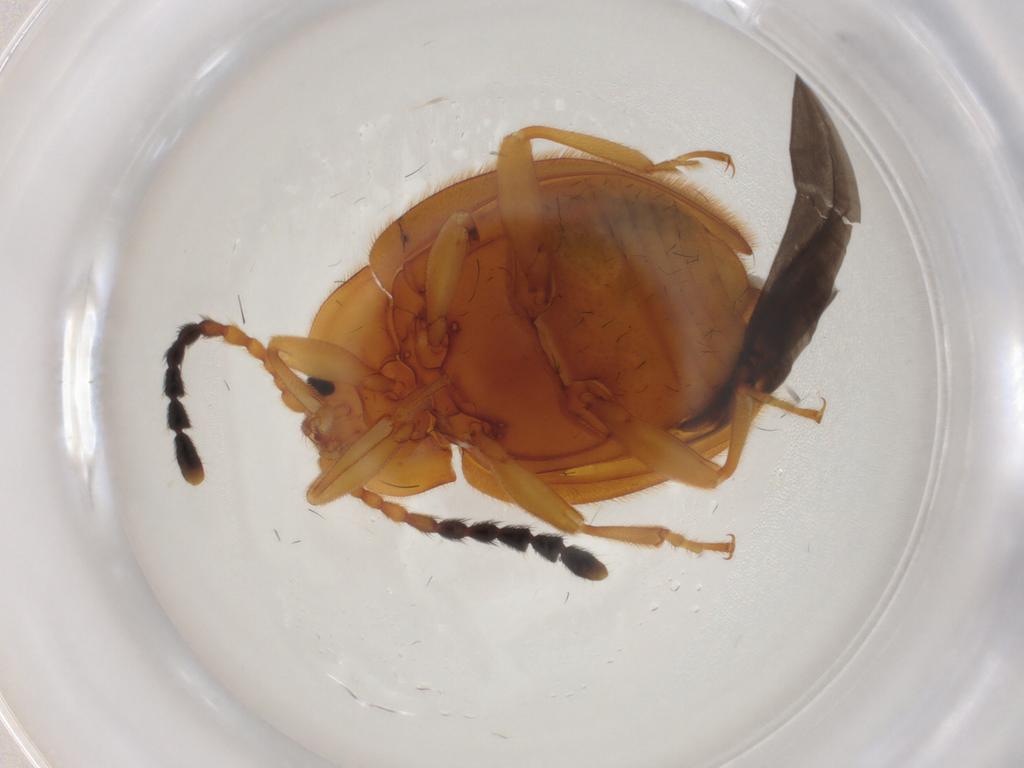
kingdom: Animalia
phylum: Arthropoda
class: Insecta
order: Coleoptera
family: Endomychidae
